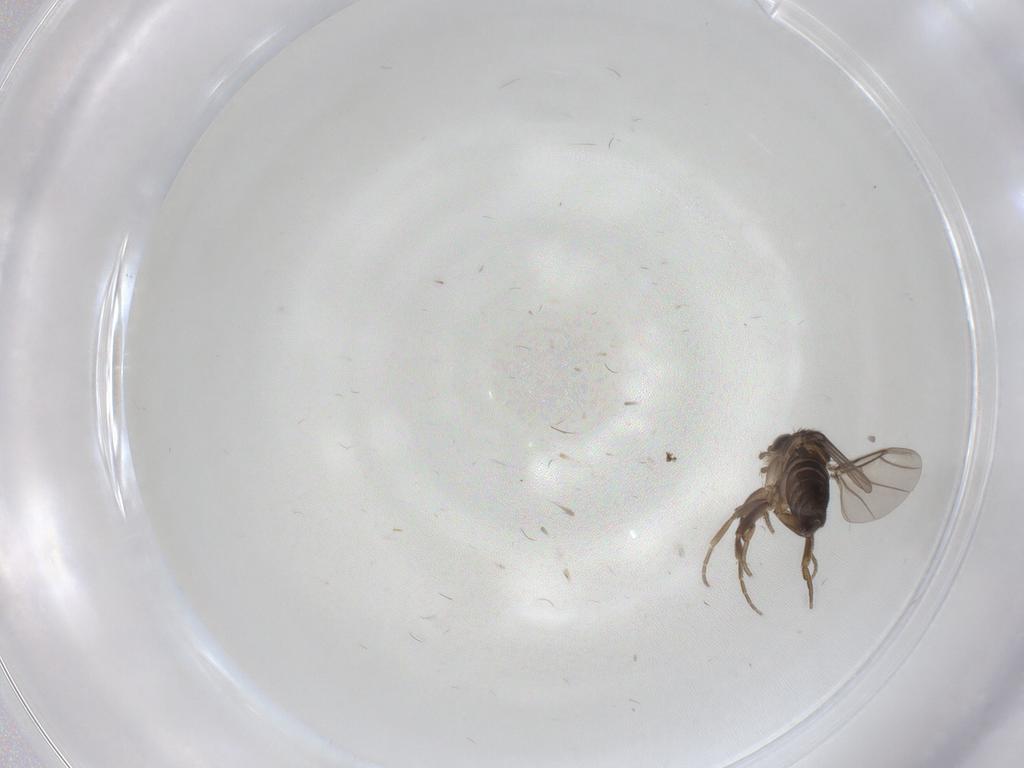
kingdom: Animalia
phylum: Arthropoda
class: Insecta
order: Diptera
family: Phoridae
